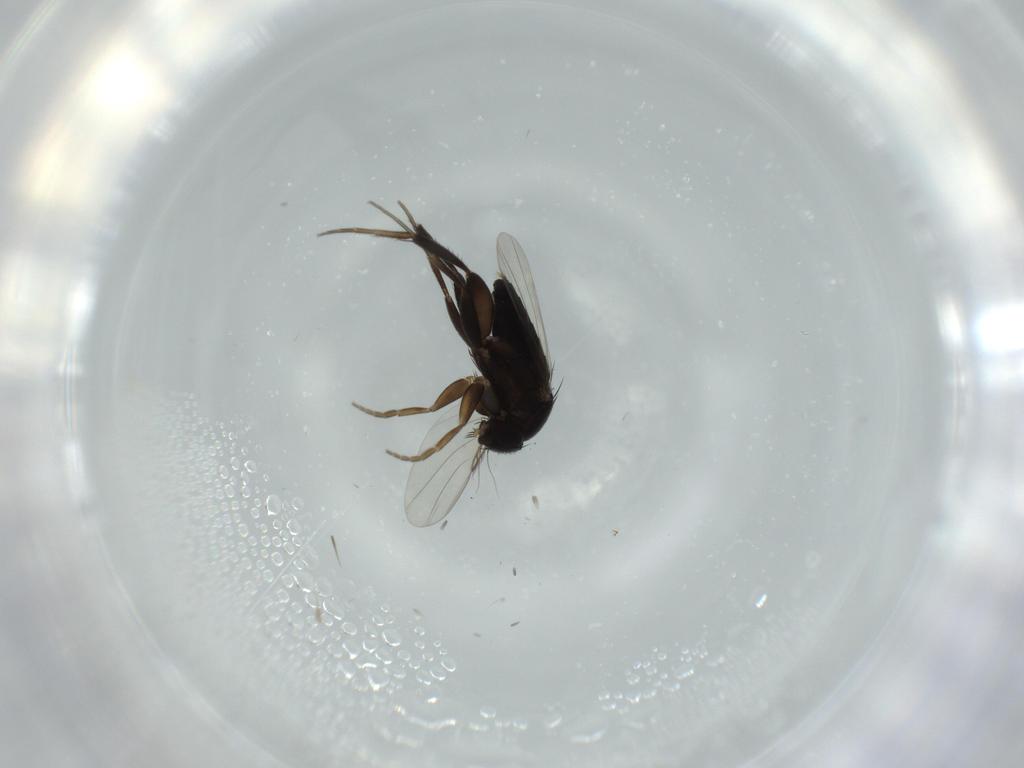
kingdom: Animalia
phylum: Arthropoda
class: Insecta
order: Diptera
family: Phoridae
